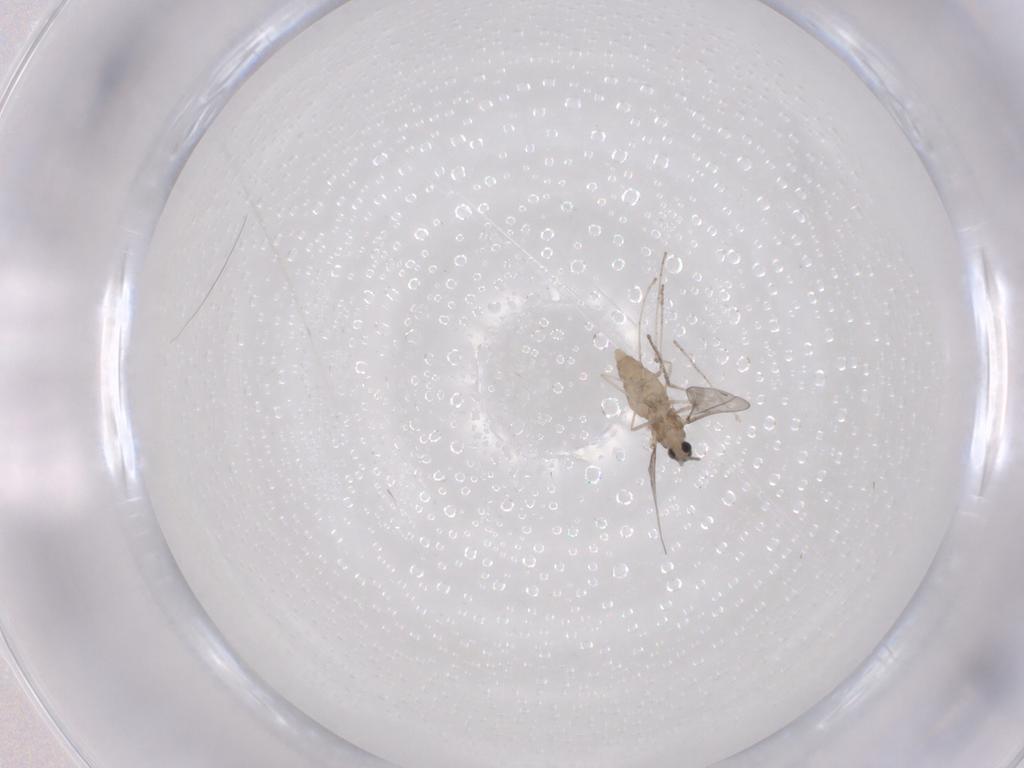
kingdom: Animalia
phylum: Arthropoda
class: Insecta
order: Diptera
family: Cecidomyiidae
